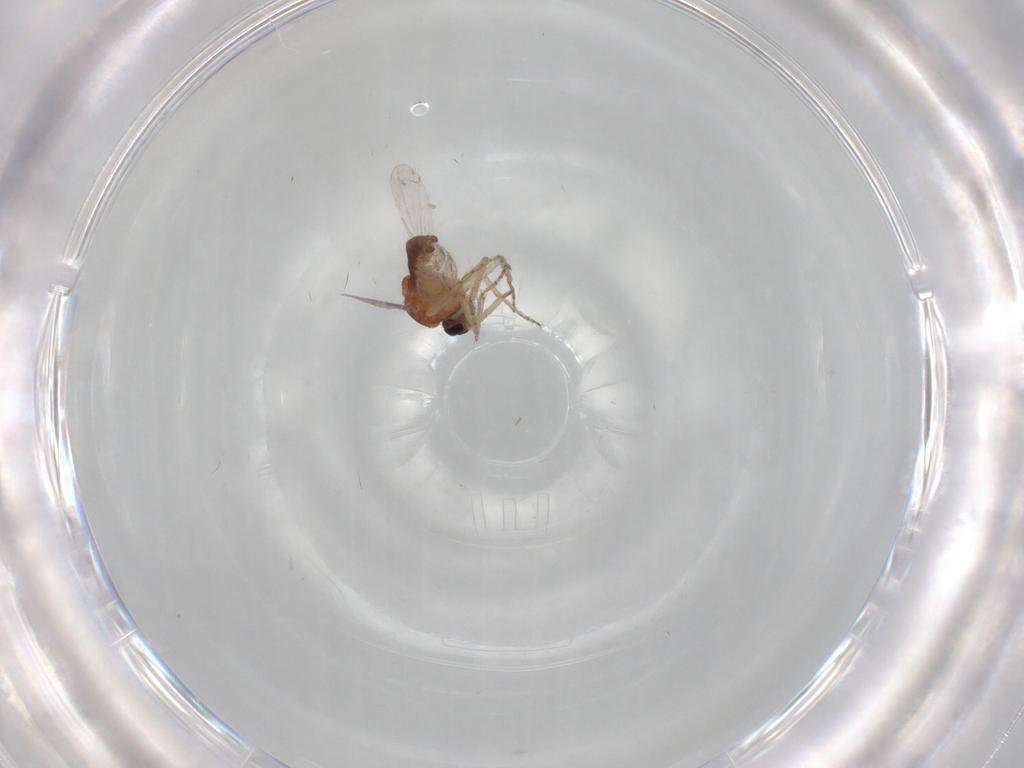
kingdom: Animalia
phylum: Arthropoda
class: Insecta
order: Diptera
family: Ceratopogonidae
